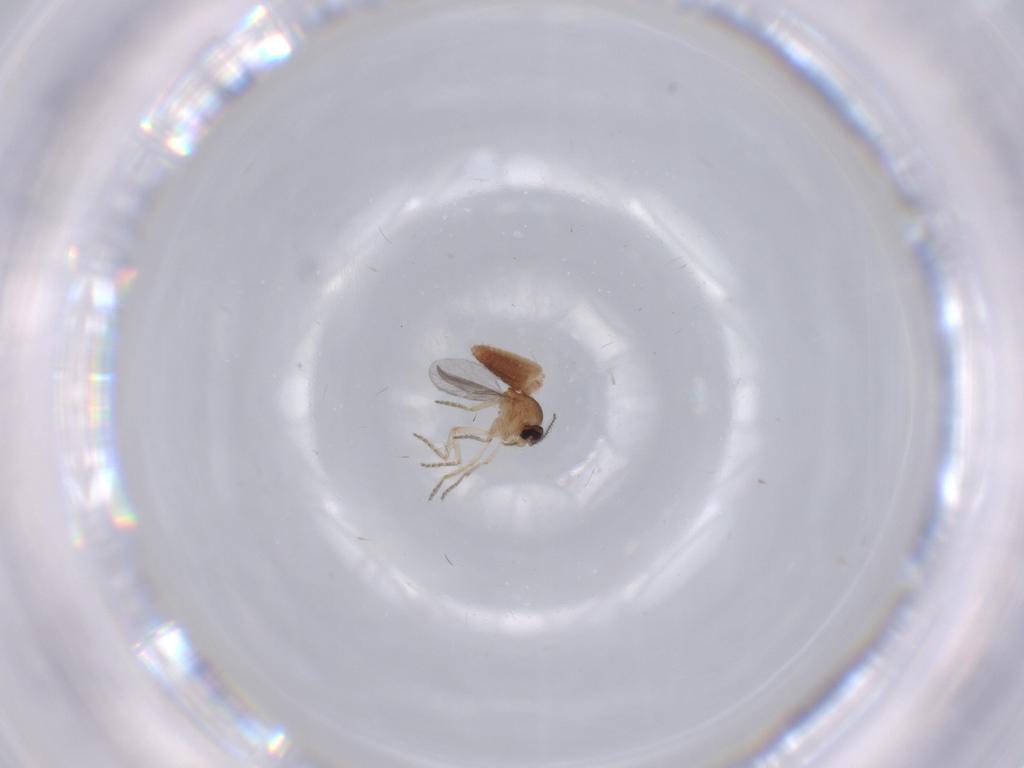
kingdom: Animalia
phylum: Arthropoda
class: Insecta
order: Diptera
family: Ceratopogonidae
